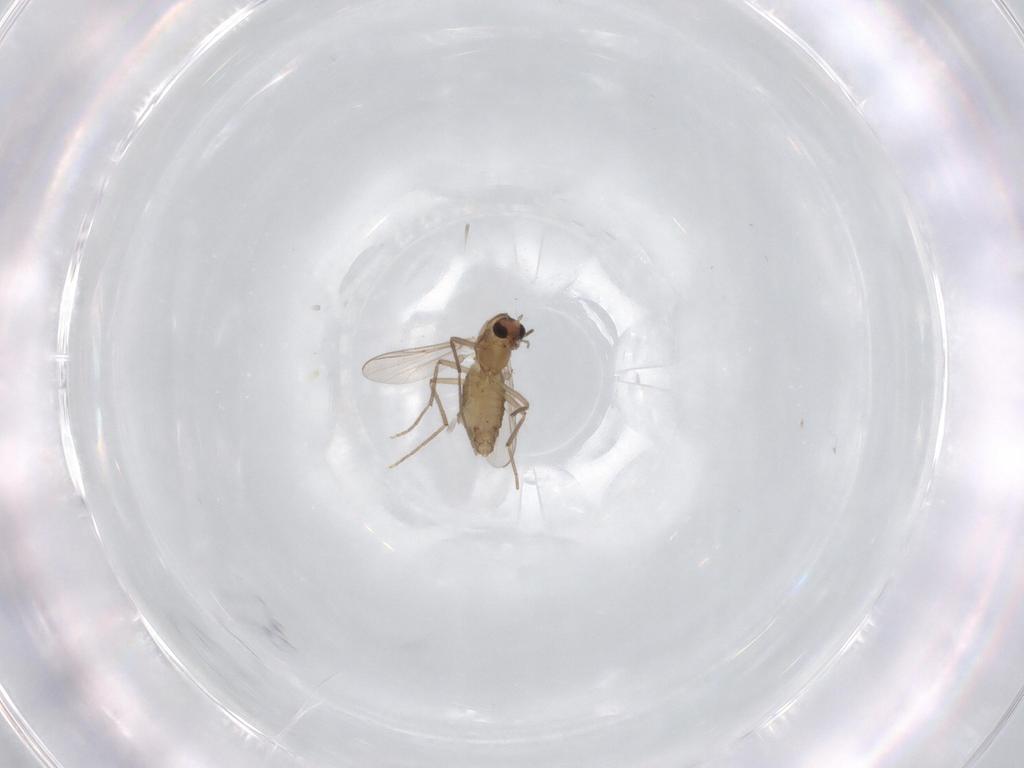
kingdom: Animalia
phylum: Arthropoda
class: Insecta
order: Diptera
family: Chironomidae
